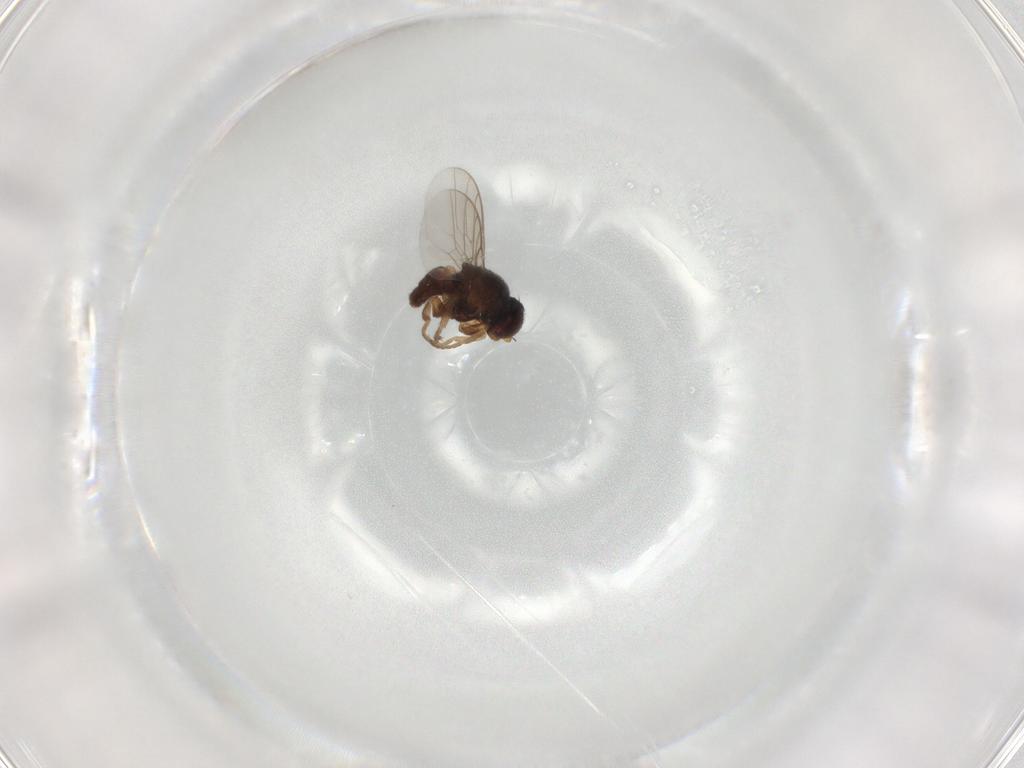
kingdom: Animalia
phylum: Arthropoda
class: Insecta
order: Diptera
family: Chloropidae
